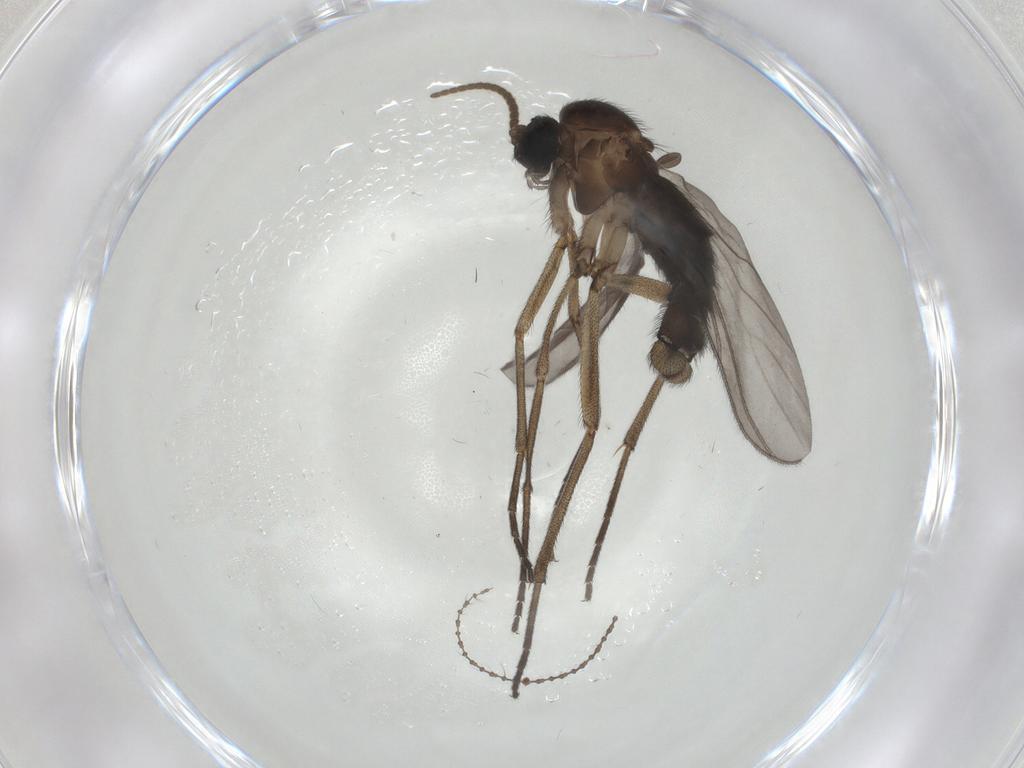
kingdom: Animalia
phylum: Arthropoda
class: Insecta
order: Diptera
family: Sciaridae
